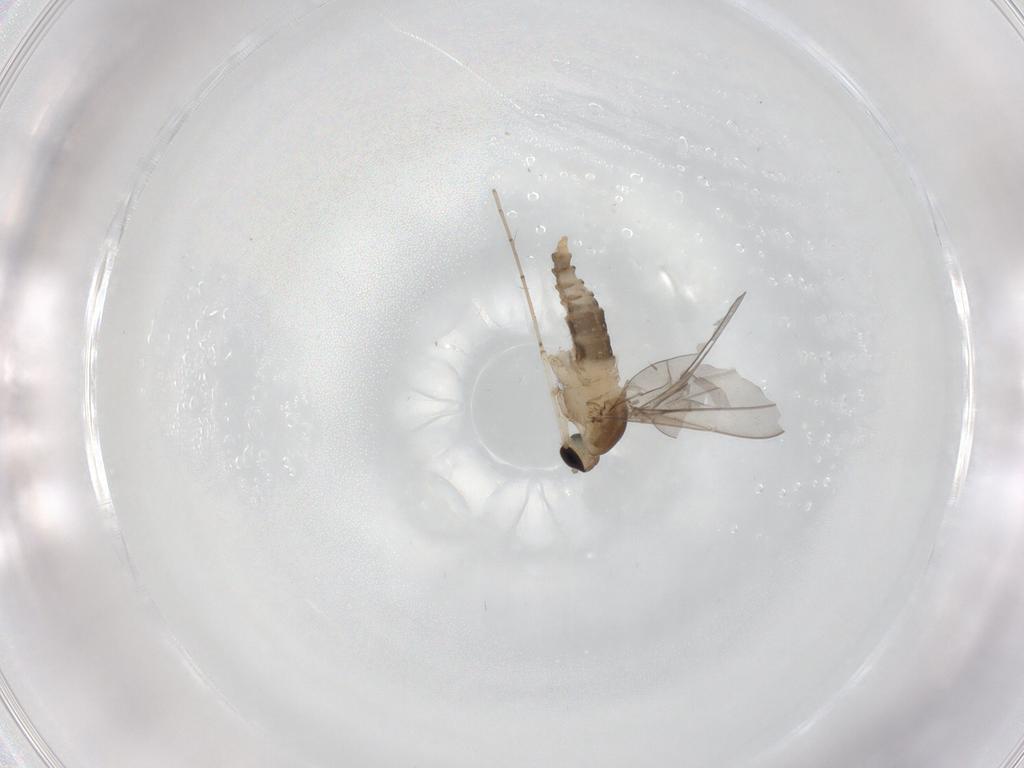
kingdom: Animalia
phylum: Arthropoda
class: Insecta
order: Diptera
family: Cecidomyiidae
